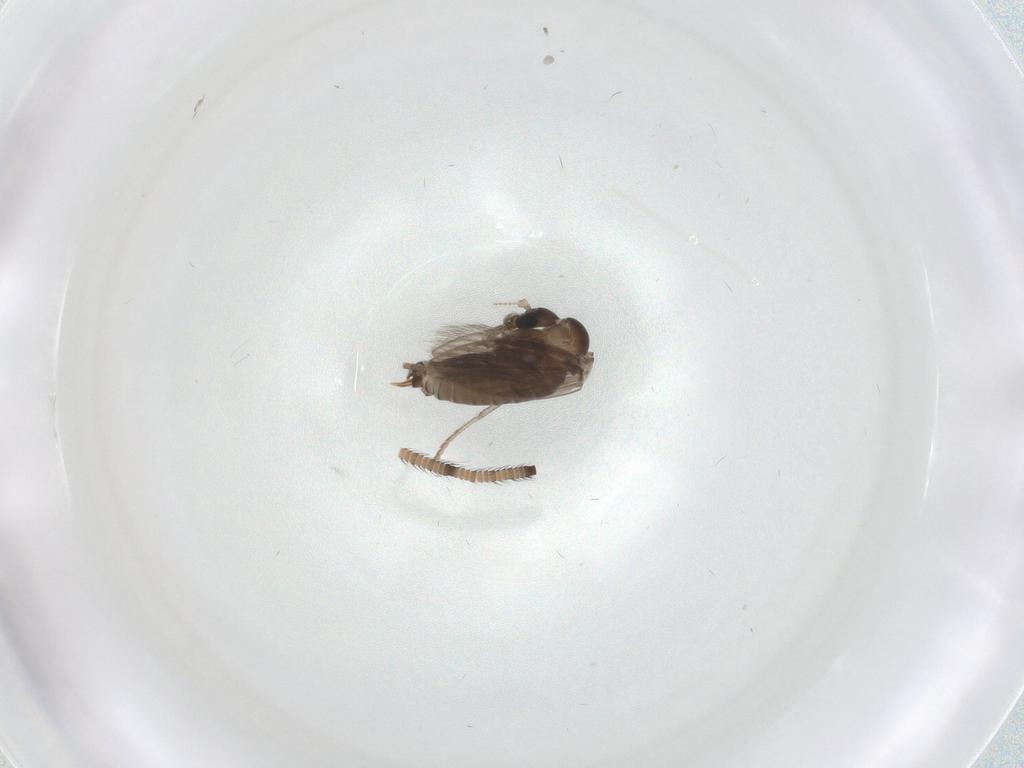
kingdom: Animalia
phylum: Arthropoda
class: Insecta
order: Diptera
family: Psychodidae
